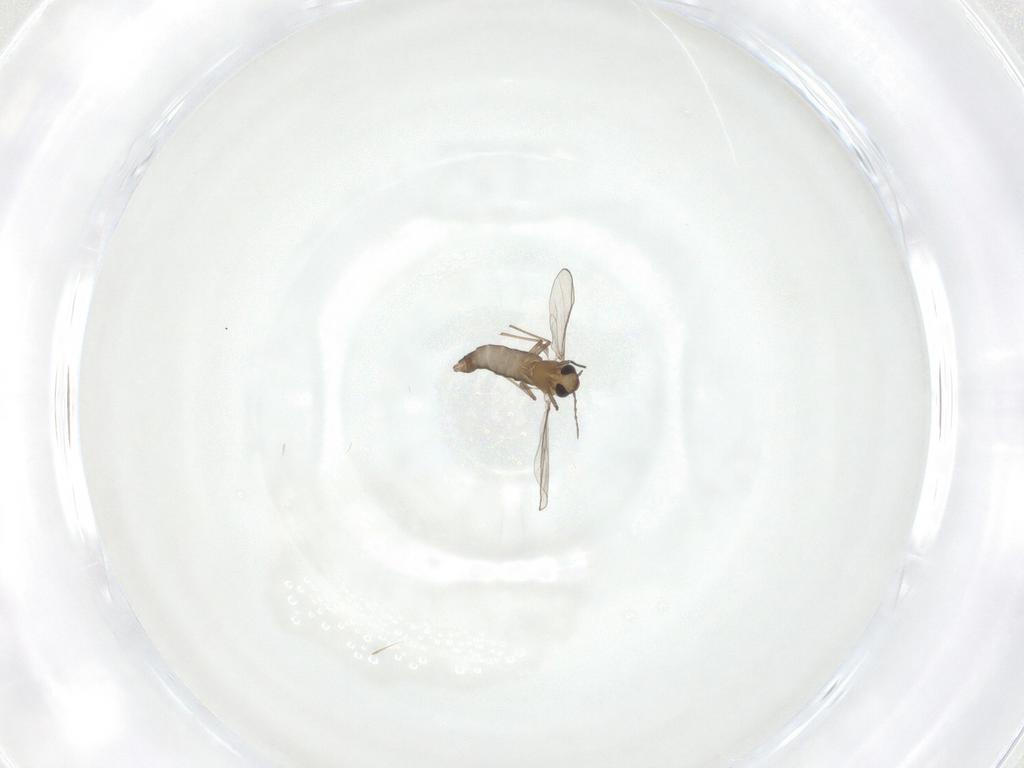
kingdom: Animalia
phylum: Arthropoda
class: Insecta
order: Diptera
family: Chironomidae
